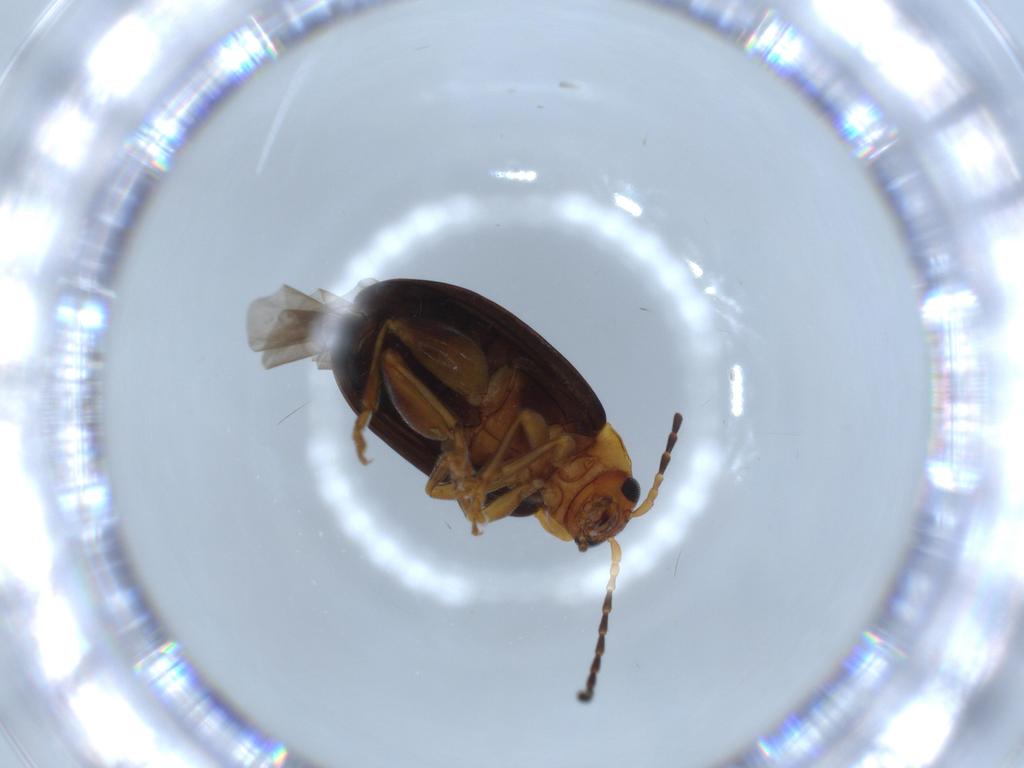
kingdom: Animalia
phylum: Arthropoda
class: Insecta
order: Coleoptera
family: Chrysomelidae
